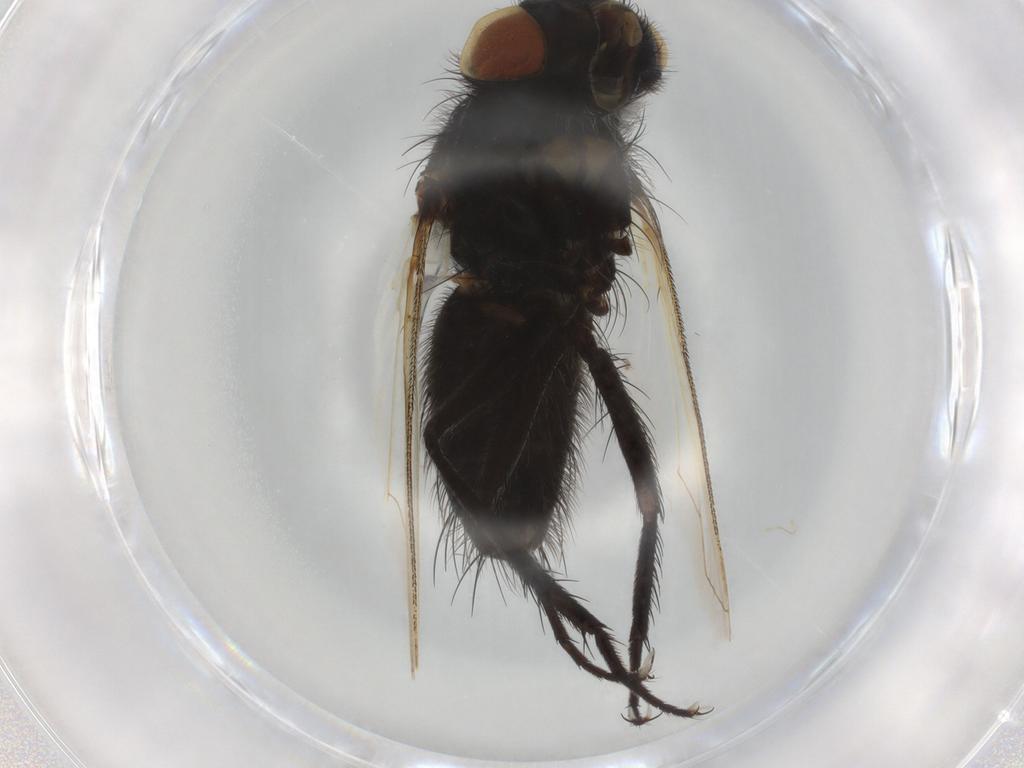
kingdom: Animalia
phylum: Arthropoda
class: Insecta
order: Diptera
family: Tachinidae
